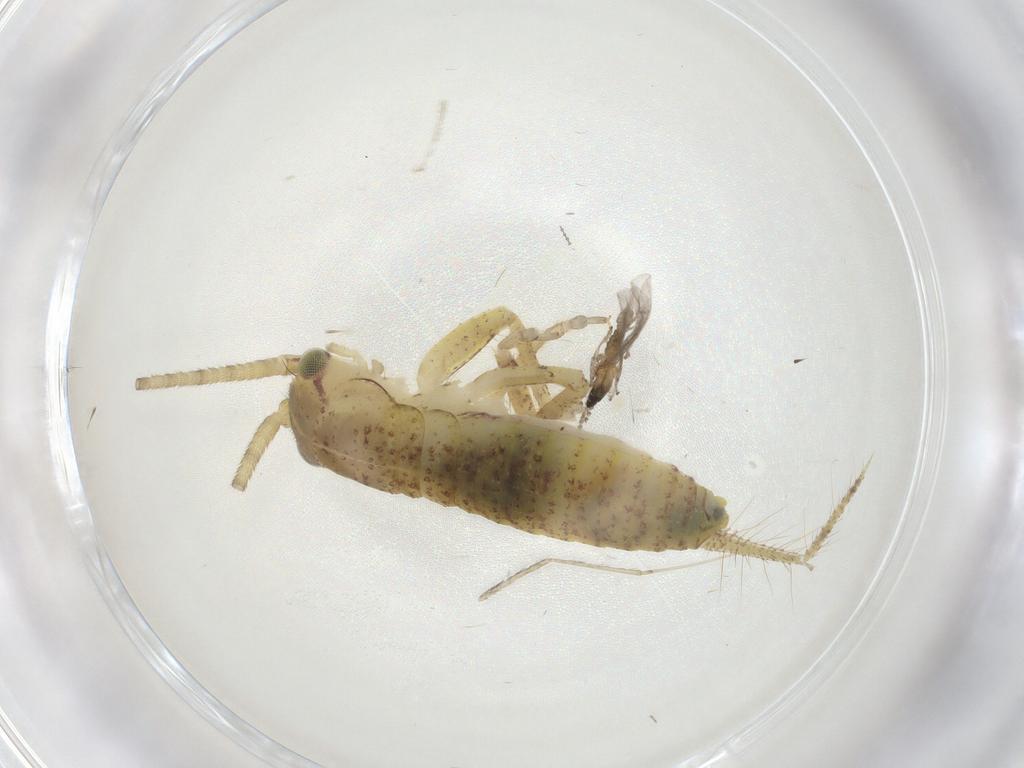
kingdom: Animalia
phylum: Arthropoda
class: Insecta
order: Orthoptera
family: Gryllidae
